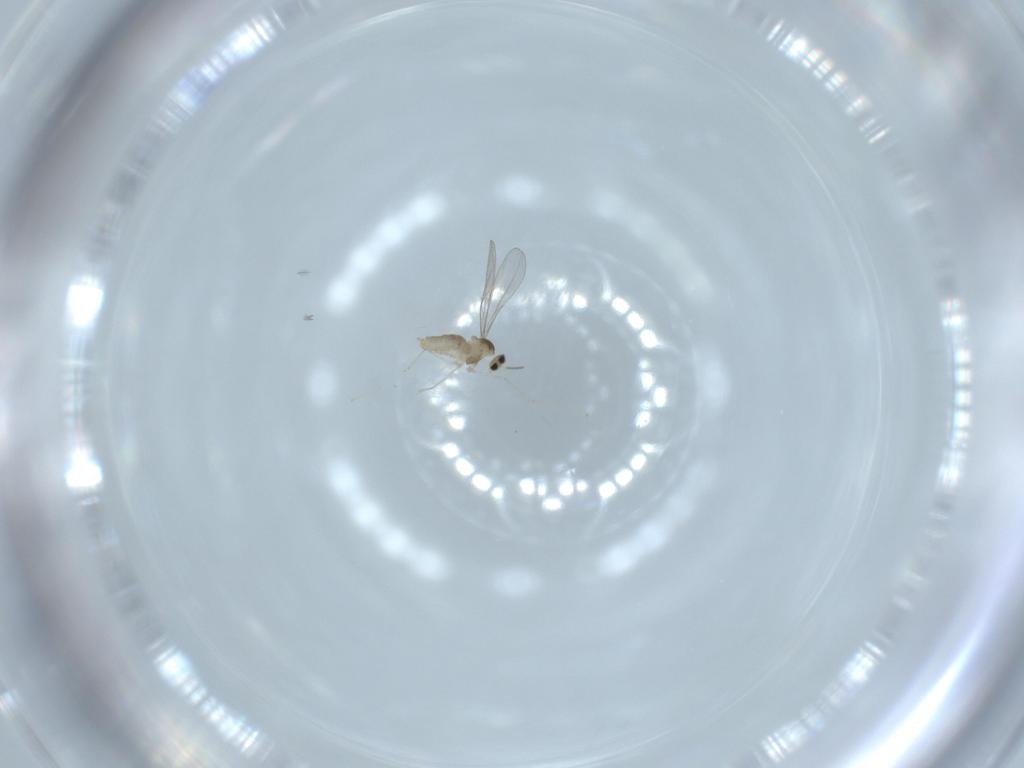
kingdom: Animalia
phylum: Arthropoda
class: Insecta
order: Diptera
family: Cecidomyiidae
